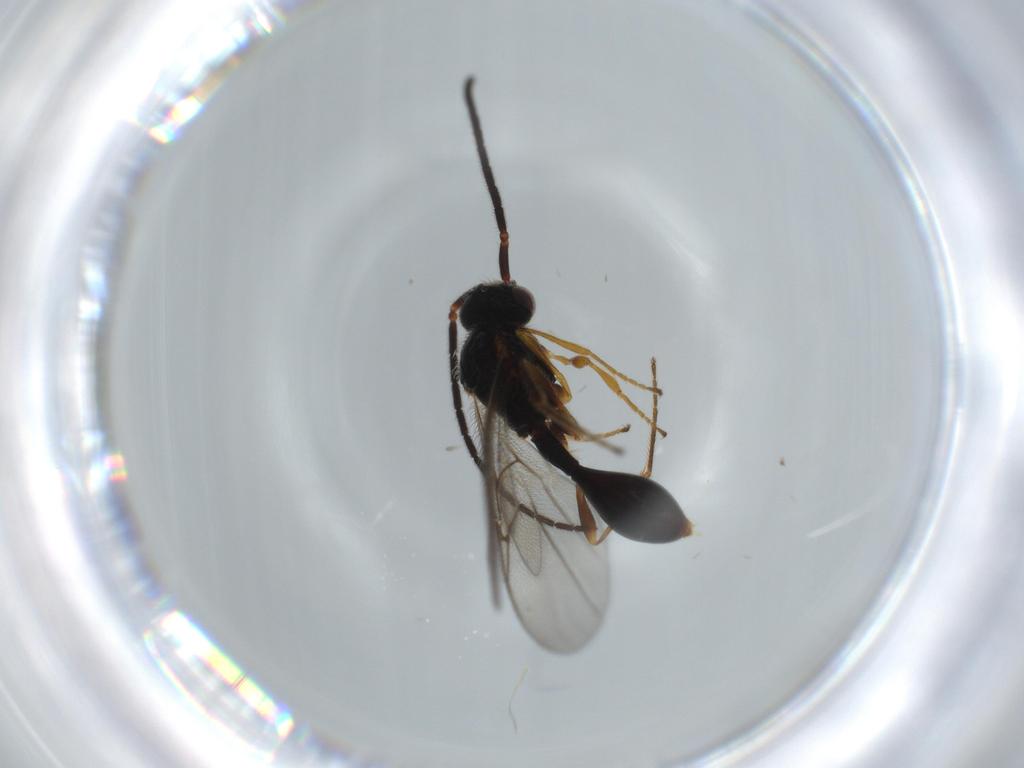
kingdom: Animalia
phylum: Arthropoda
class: Insecta
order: Hymenoptera
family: Diapriidae
